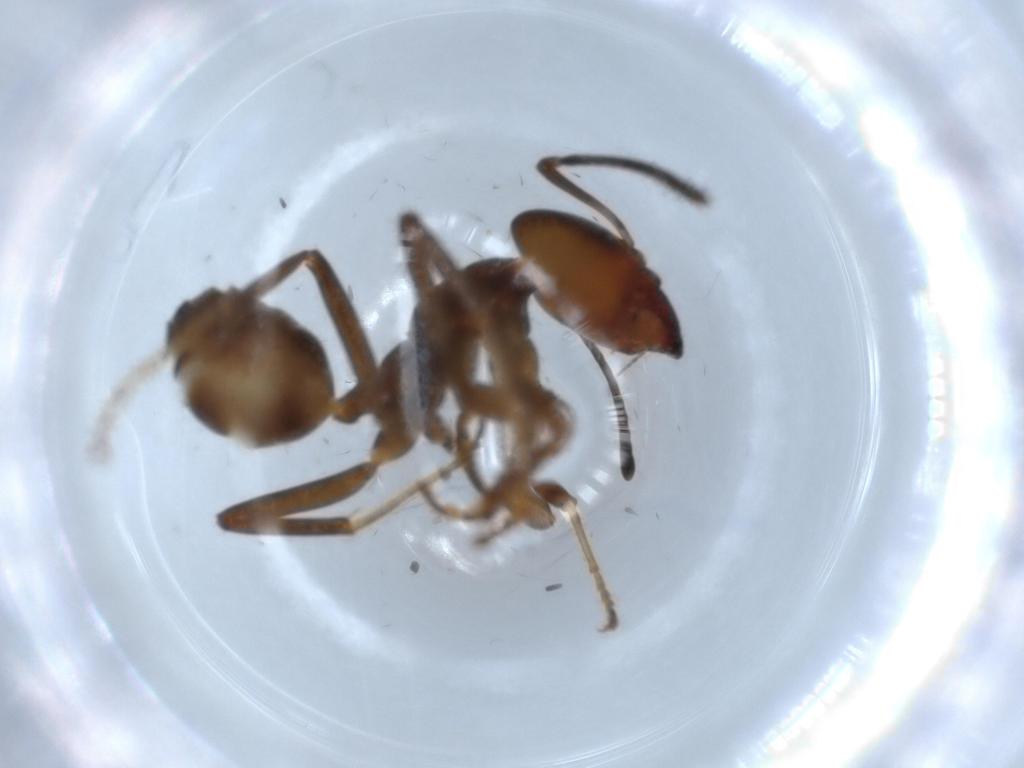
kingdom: Animalia
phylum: Arthropoda
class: Insecta
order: Hymenoptera
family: Formicidae
